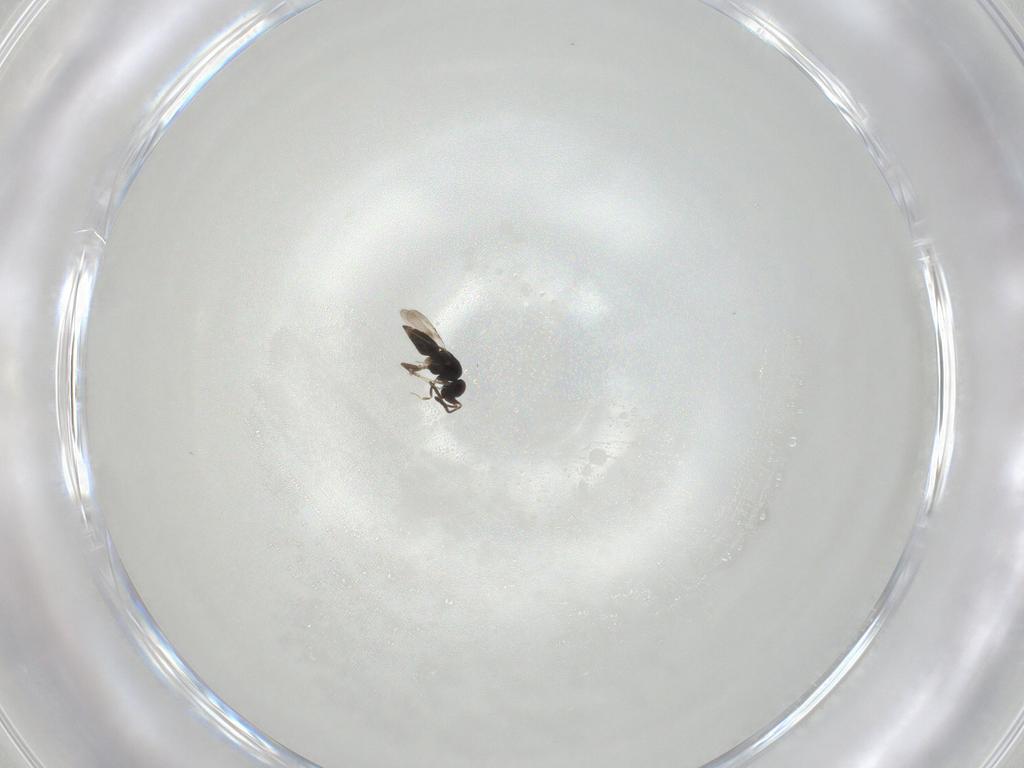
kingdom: Animalia
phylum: Arthropoda
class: Insecta
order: Hymenoptera
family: Ceraphronidae
